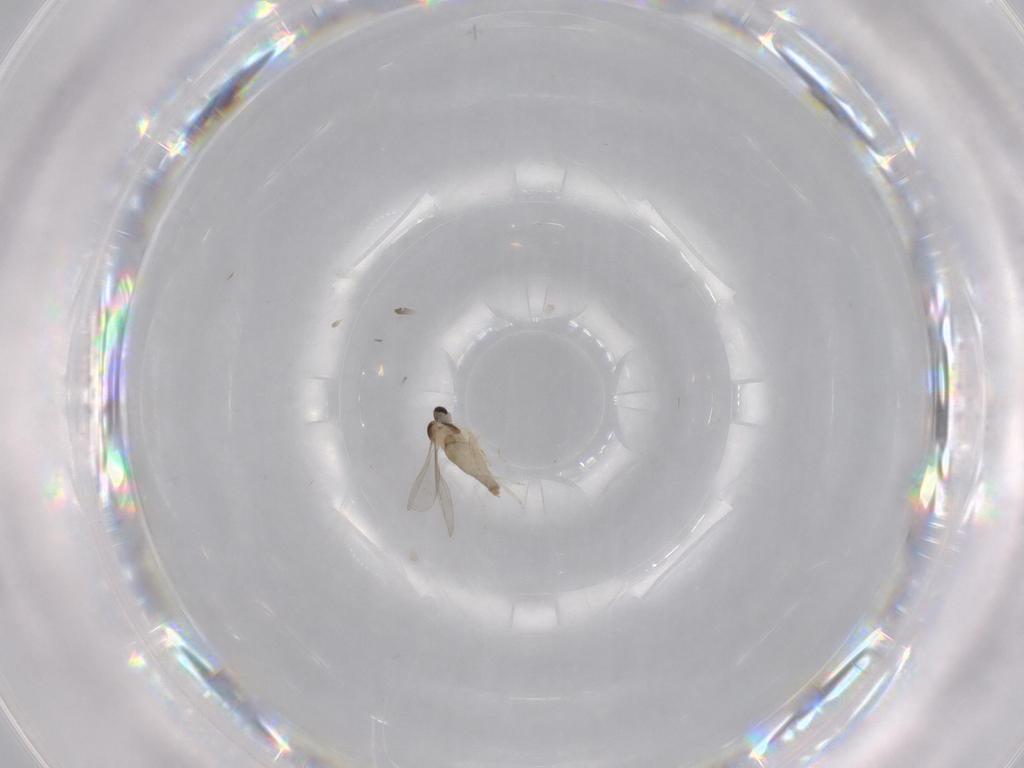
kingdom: Animalia
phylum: Arthropoda
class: Insecta
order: Diptera
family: Cecidomyiidae
